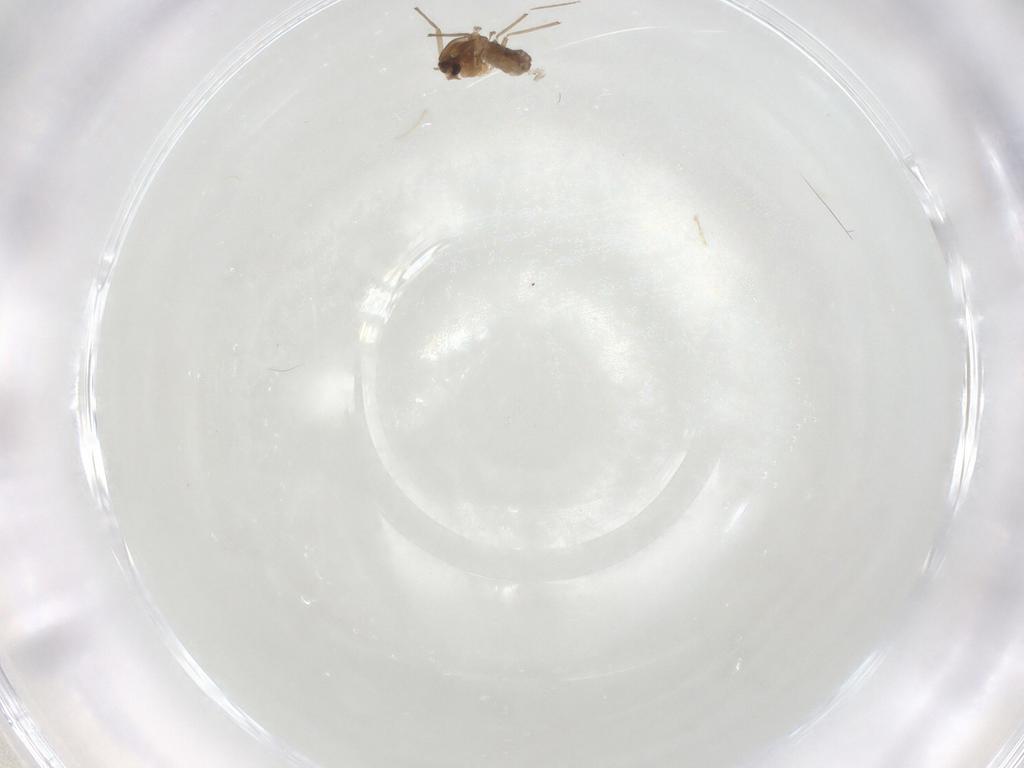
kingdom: Animalia
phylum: Arthropoda
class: Insecta
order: Diptera
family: Chironomidae
